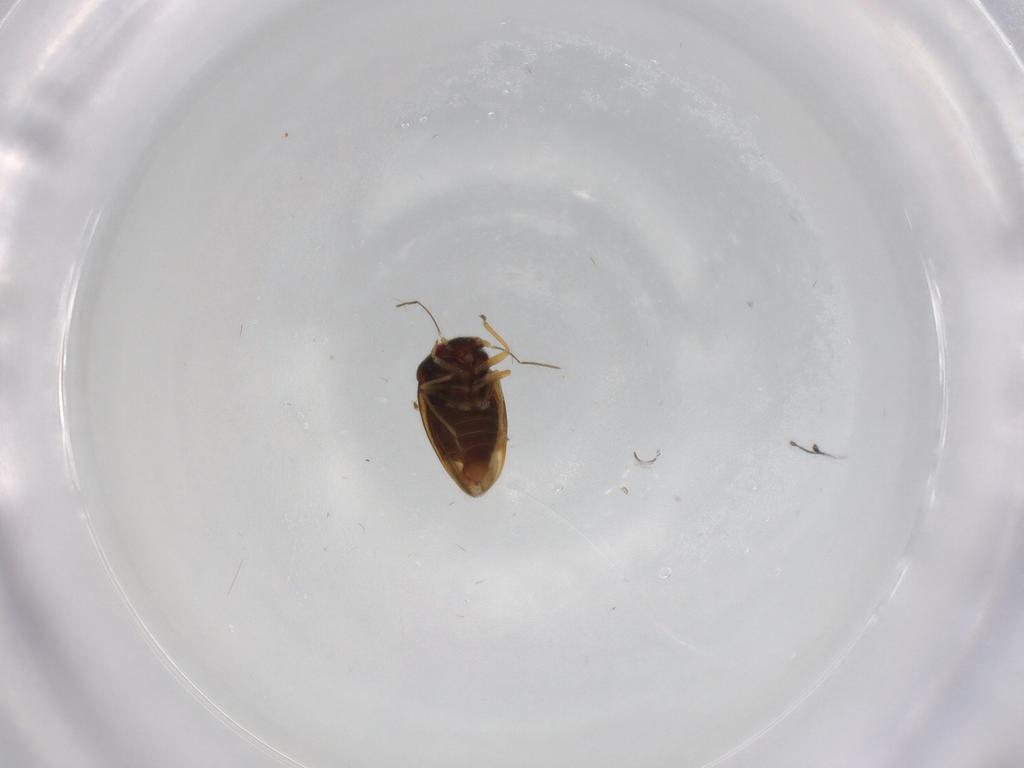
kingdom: Animalia
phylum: Arthropoda
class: Insecta
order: Hemiptera
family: Schizopteridae
